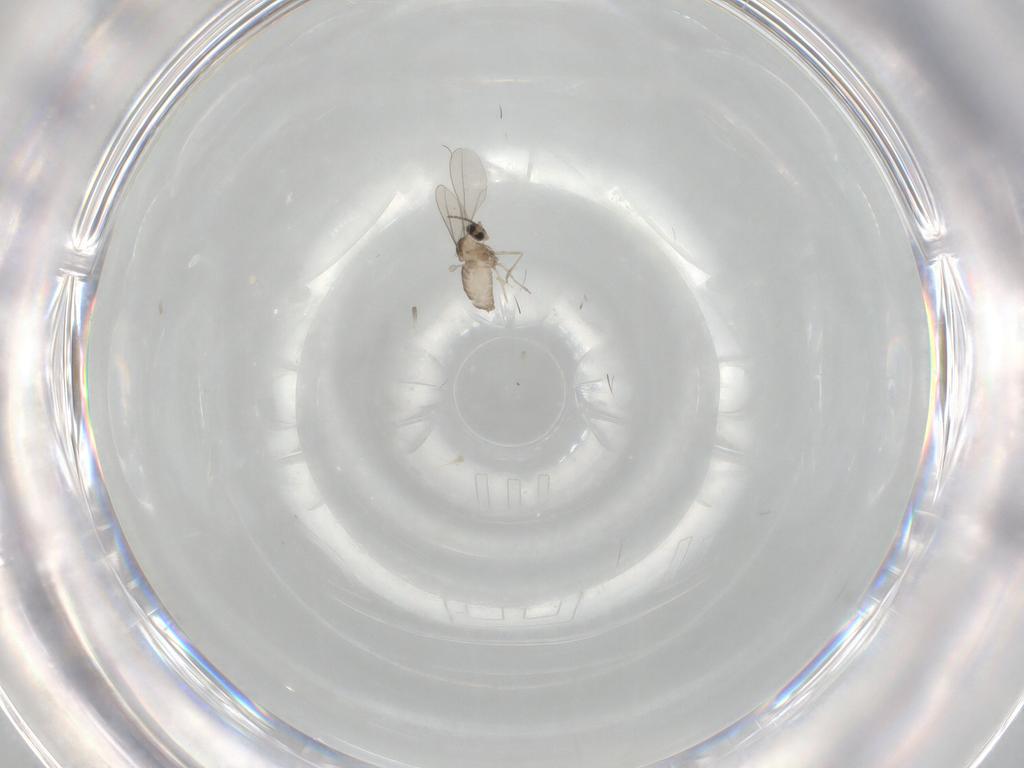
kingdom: Animalia
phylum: Arthropoda
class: Insecta
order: Diptera
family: Cecidomyiidae
